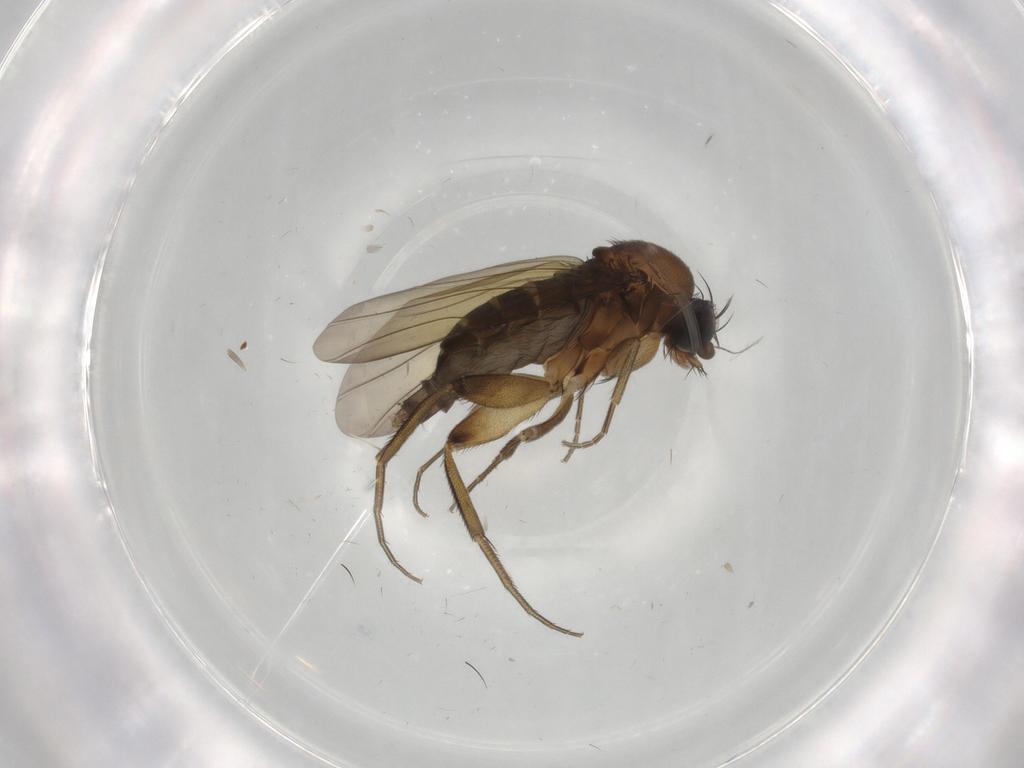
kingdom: Animalia
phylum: Arthropoda
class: Insecta
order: Diptera
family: Phoridae
